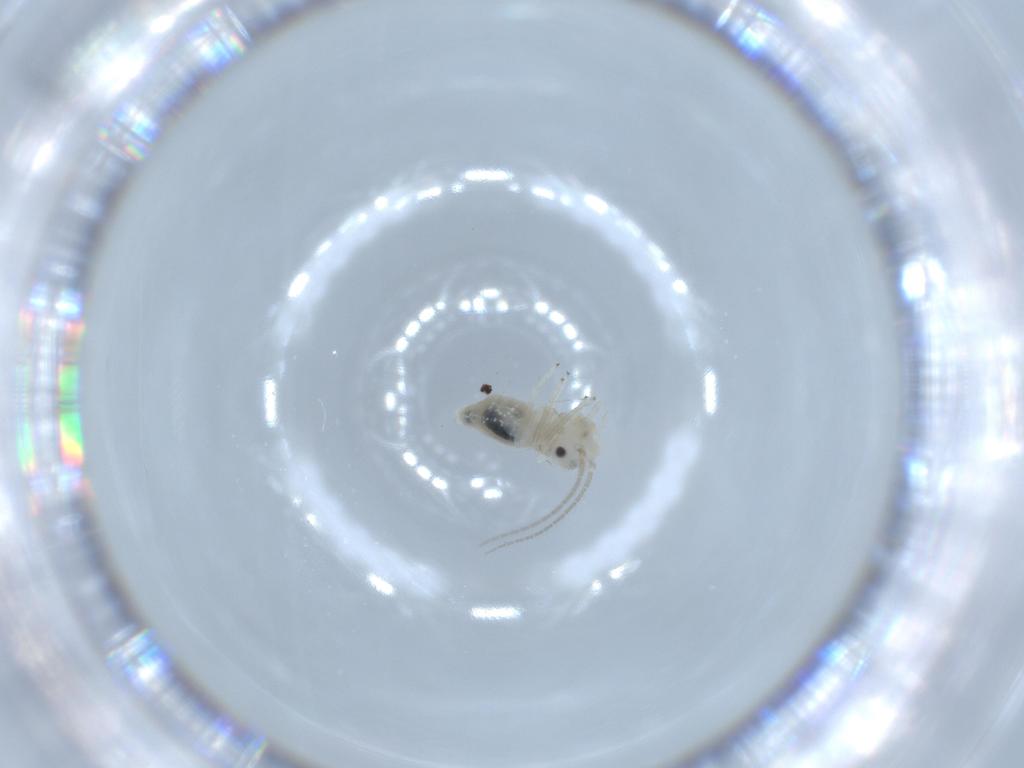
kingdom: Animalia
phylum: Arthropoda
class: Insecta
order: Psocodea
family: Caeciliusidae
